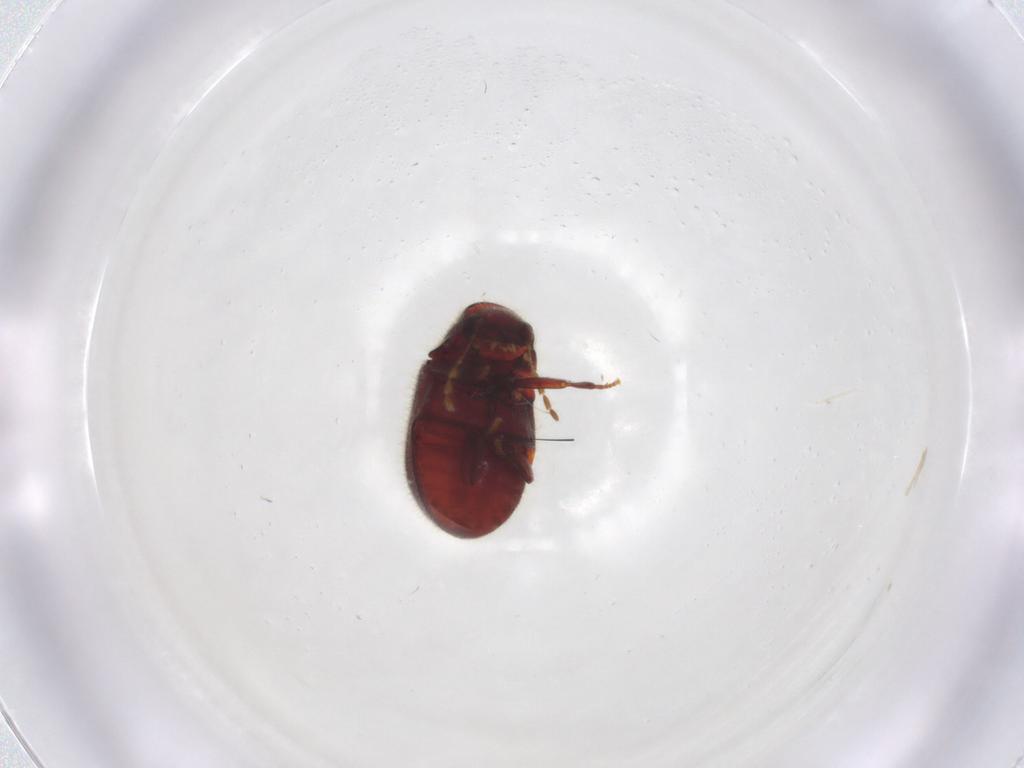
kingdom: Animalia
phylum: Arthropoda
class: Insecta
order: Coleoptera
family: Ptinidae
